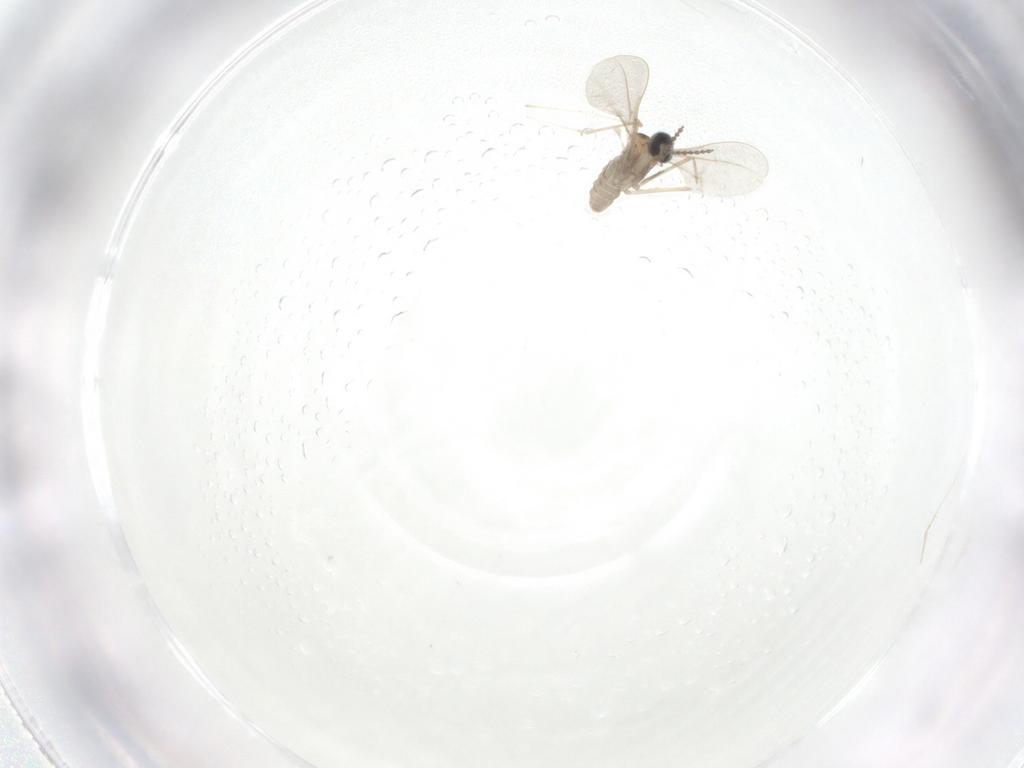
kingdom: Animalia
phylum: Arthropoda
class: Insecta
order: Diptera
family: Cecidomyiidae
